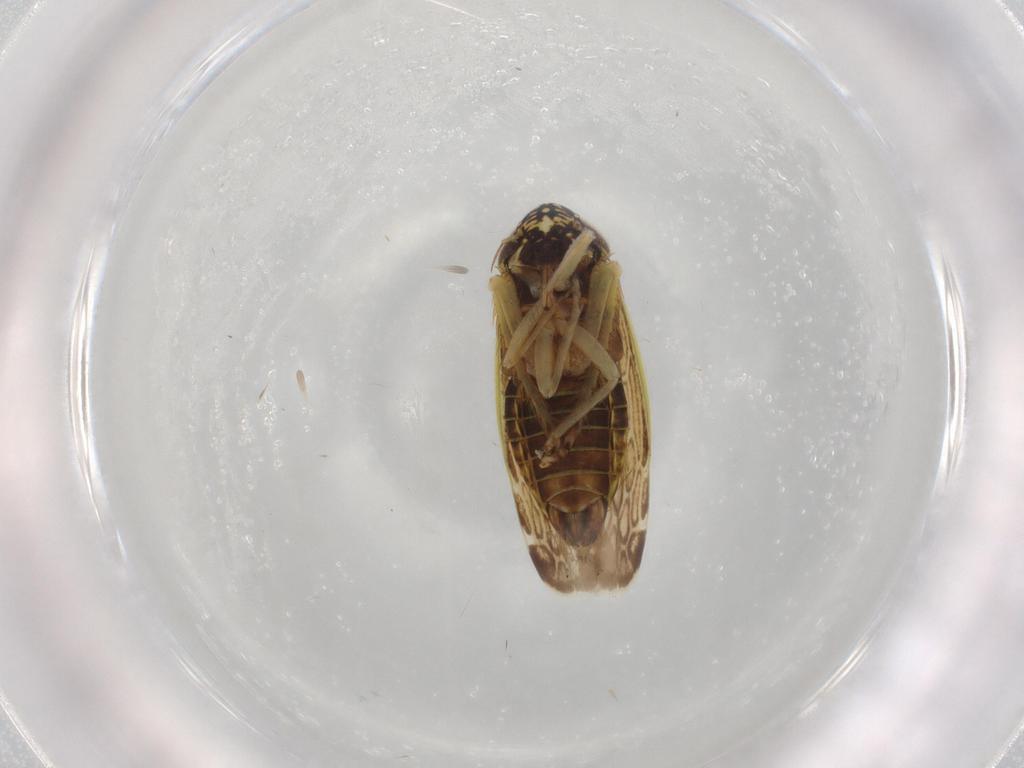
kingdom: Animalia
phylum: Arthropoda
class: Insecta
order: Hemiptera
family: Cicadellidae
